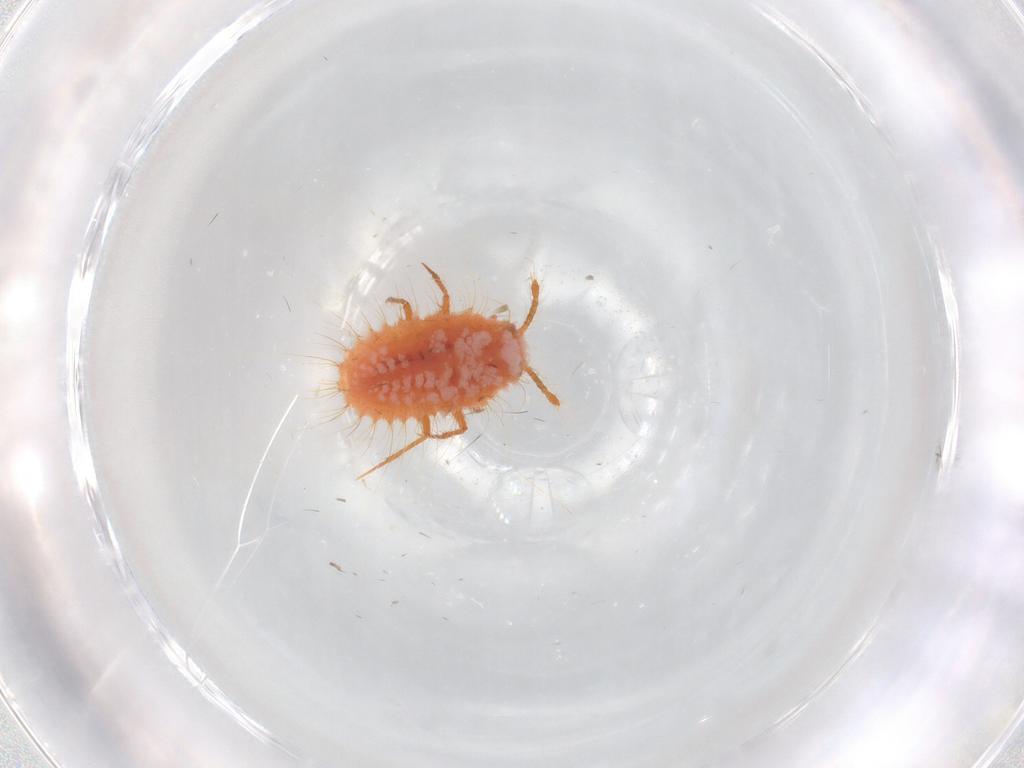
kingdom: Animalia
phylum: Arthropoda
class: Insecta
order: Hemiptera
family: Coccoidea_incertae_sedis
